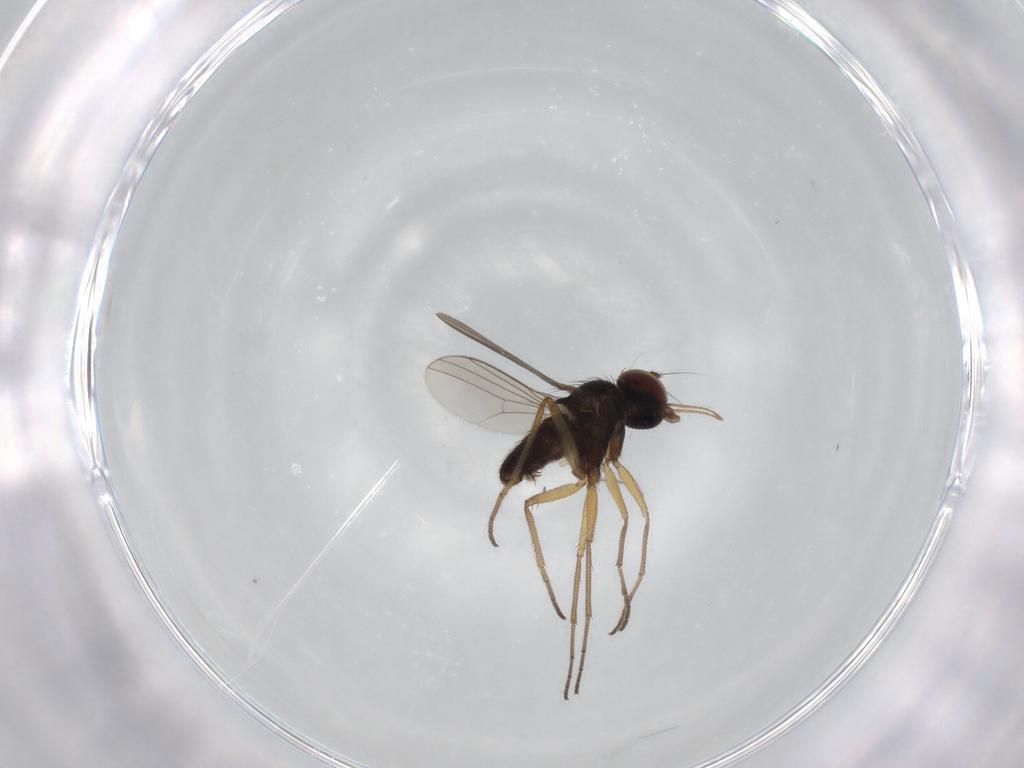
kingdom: Animalia
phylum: Arthropoda
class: Insecta
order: Diptera
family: Dolichopodidae
